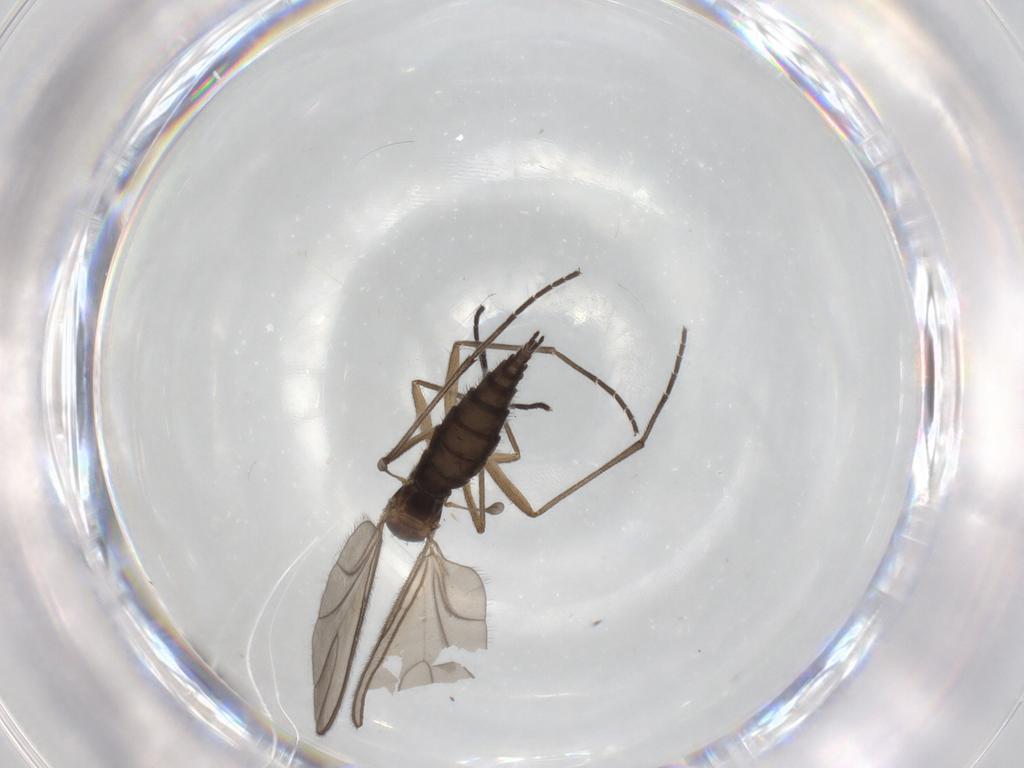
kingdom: Animalia
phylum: Arthropoda
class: Insecta
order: Diptera
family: Sciaridae
